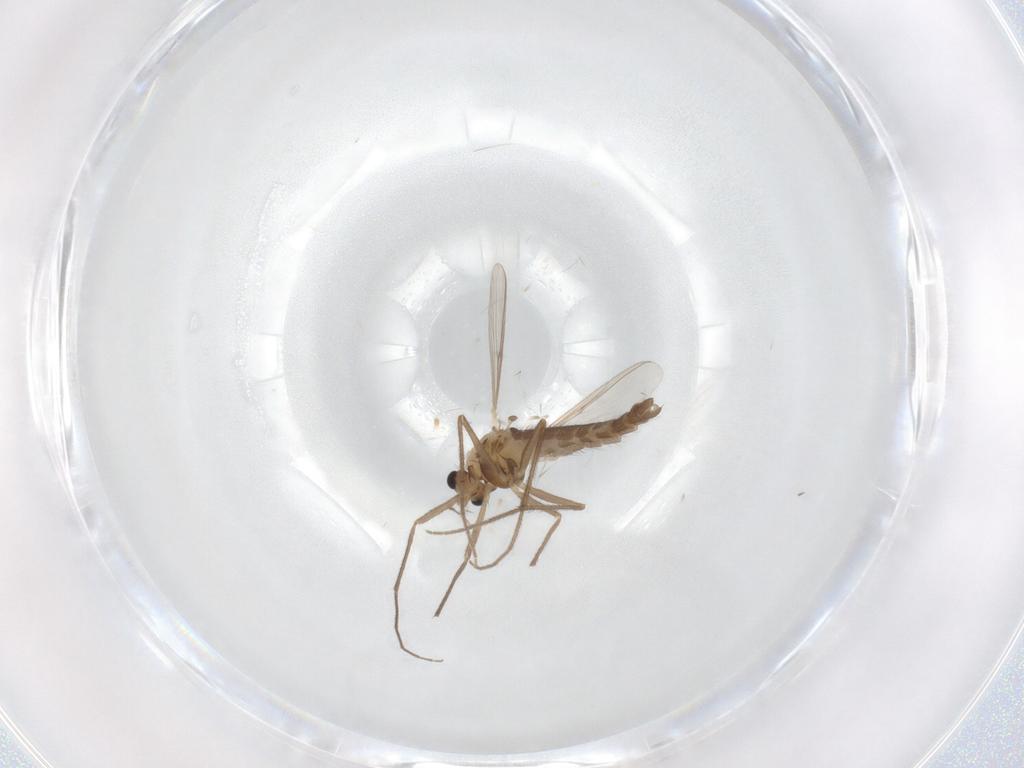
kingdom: Animalia
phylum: Arthropoda
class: Insecta
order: Diptera
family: Chironomidae
